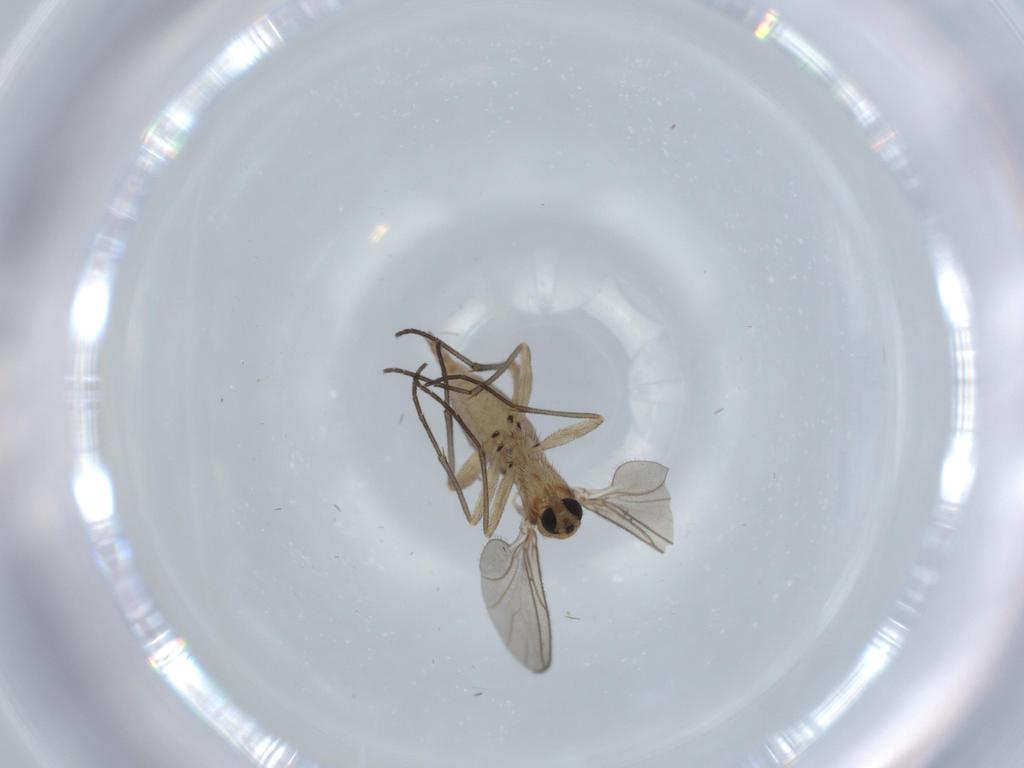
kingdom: Animalia
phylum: Arthropoda
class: Insecta
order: Diptera
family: Sciaridae
